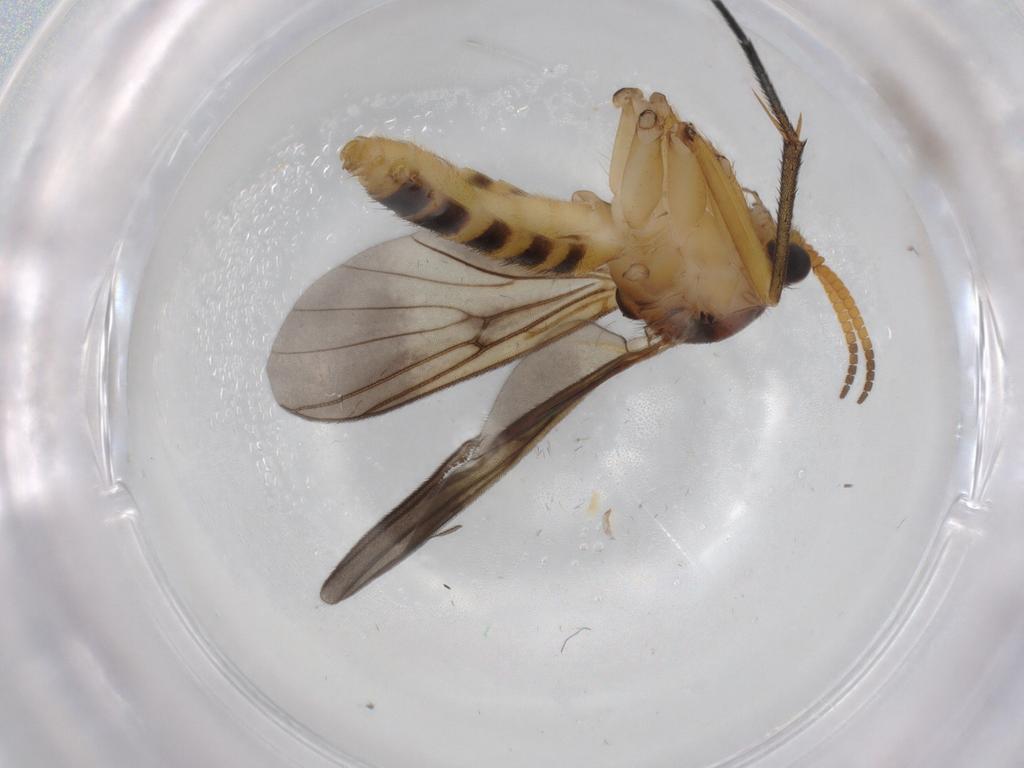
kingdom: Animalia
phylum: Arthropoda
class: Insecta
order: Diptera
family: Chironomidae
